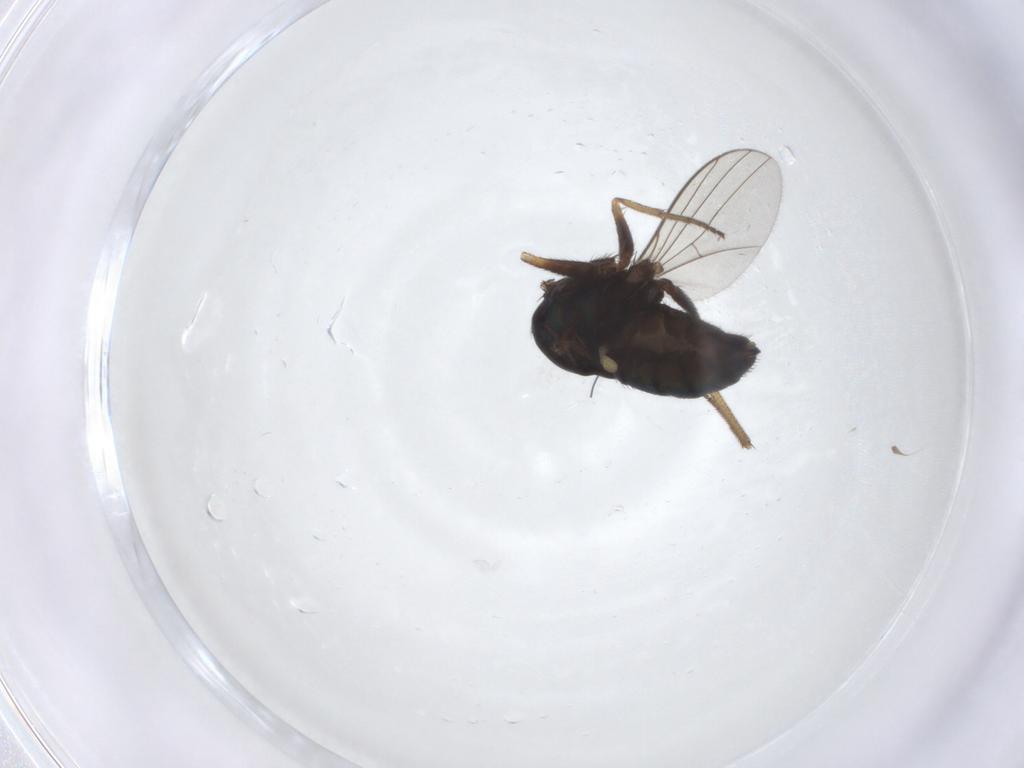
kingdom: Animalia
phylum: Arthropoda
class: Insecta
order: Diptera
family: Dolichopodidae
